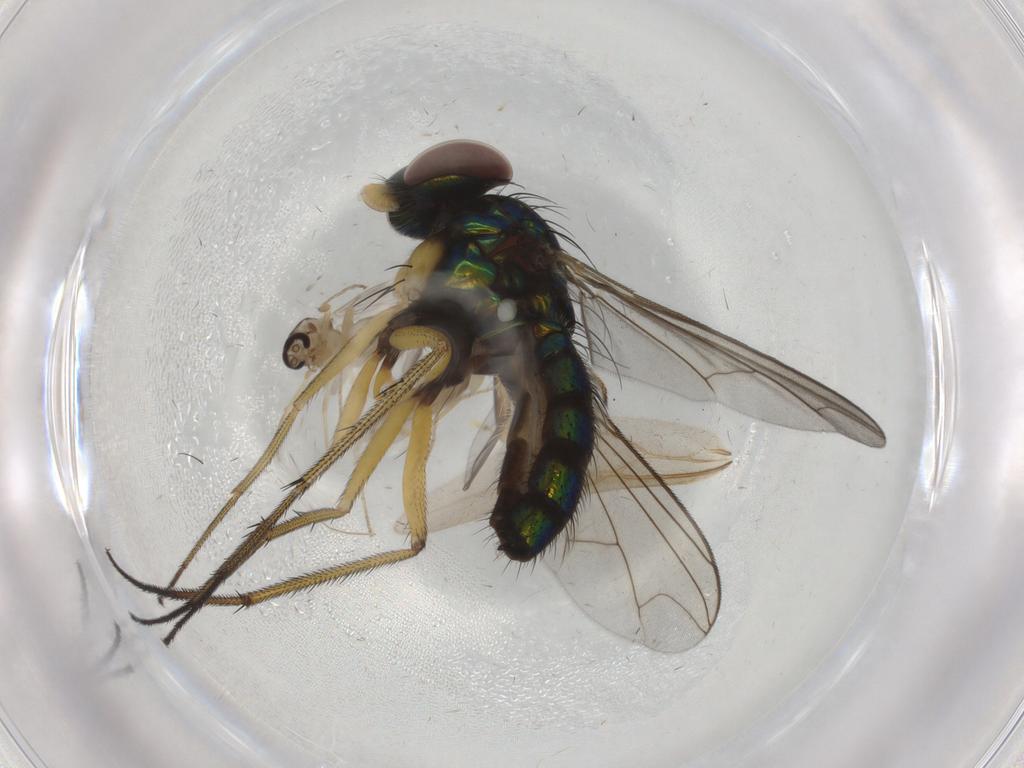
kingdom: Animalia
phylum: Arthropoda
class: Insecta
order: Diptera
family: Ceratopogonidae
